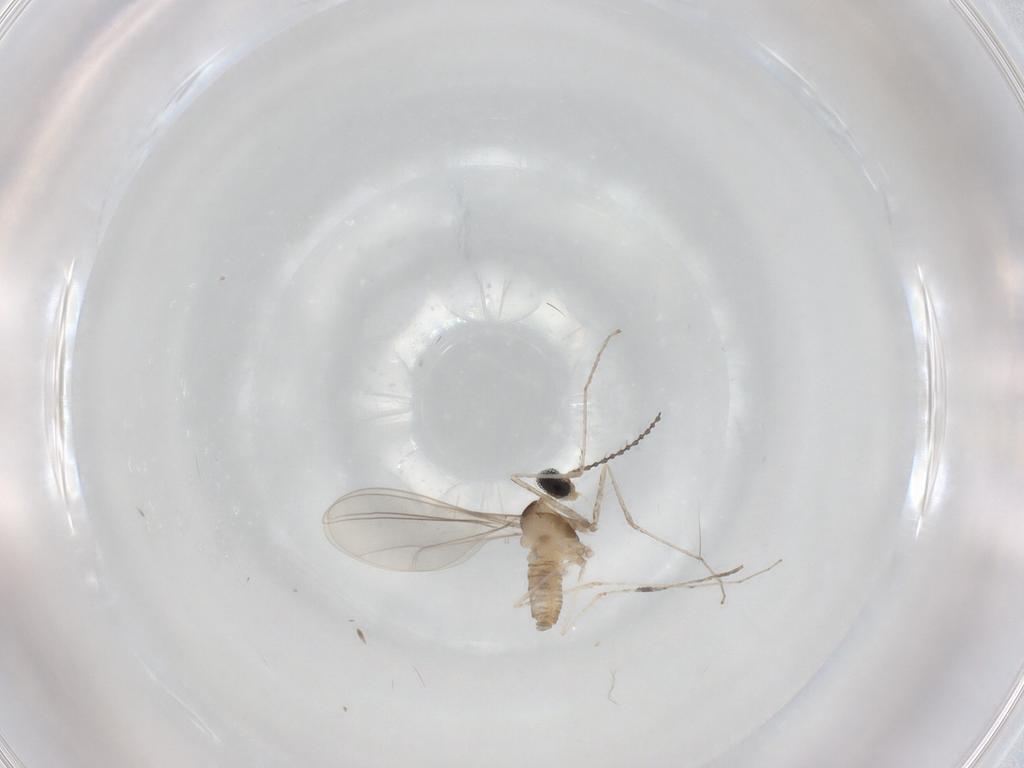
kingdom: Animalia
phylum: Arthropoda
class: Insecta
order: Diptera
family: Cecidomyiidae
